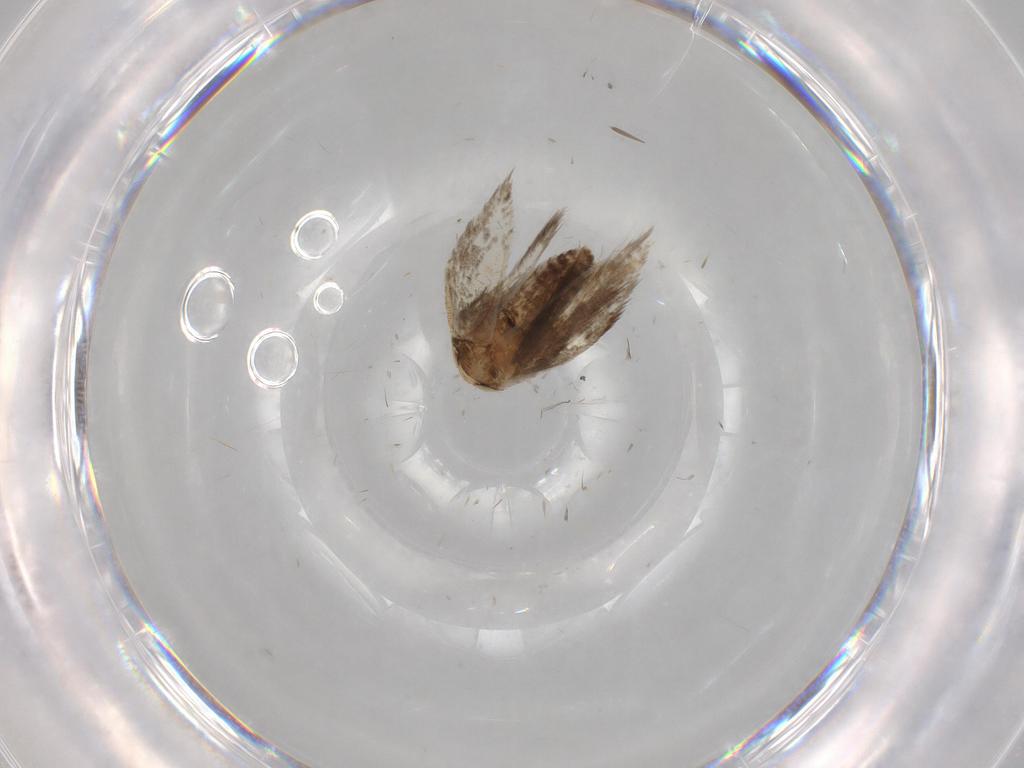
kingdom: Animalia
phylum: Arthropoda
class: Insecta
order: Lepidoptera
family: Nepticulidae
